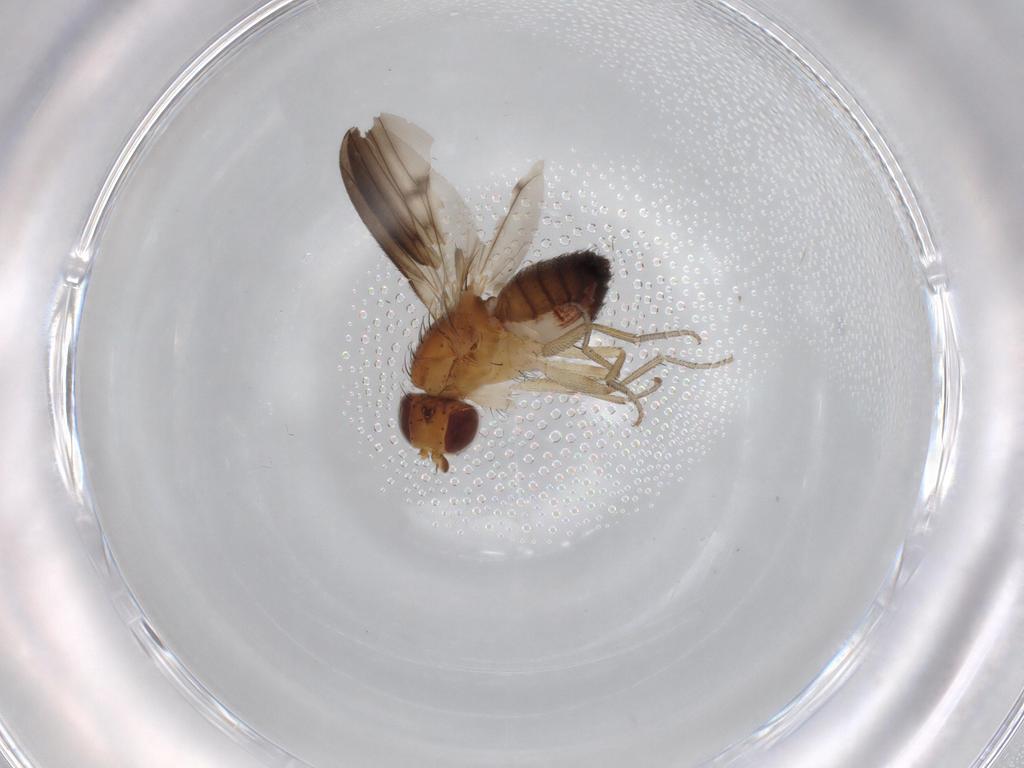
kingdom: Animalia
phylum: Arthropoda
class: Insecta
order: Diptera
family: Heleomyzidae
